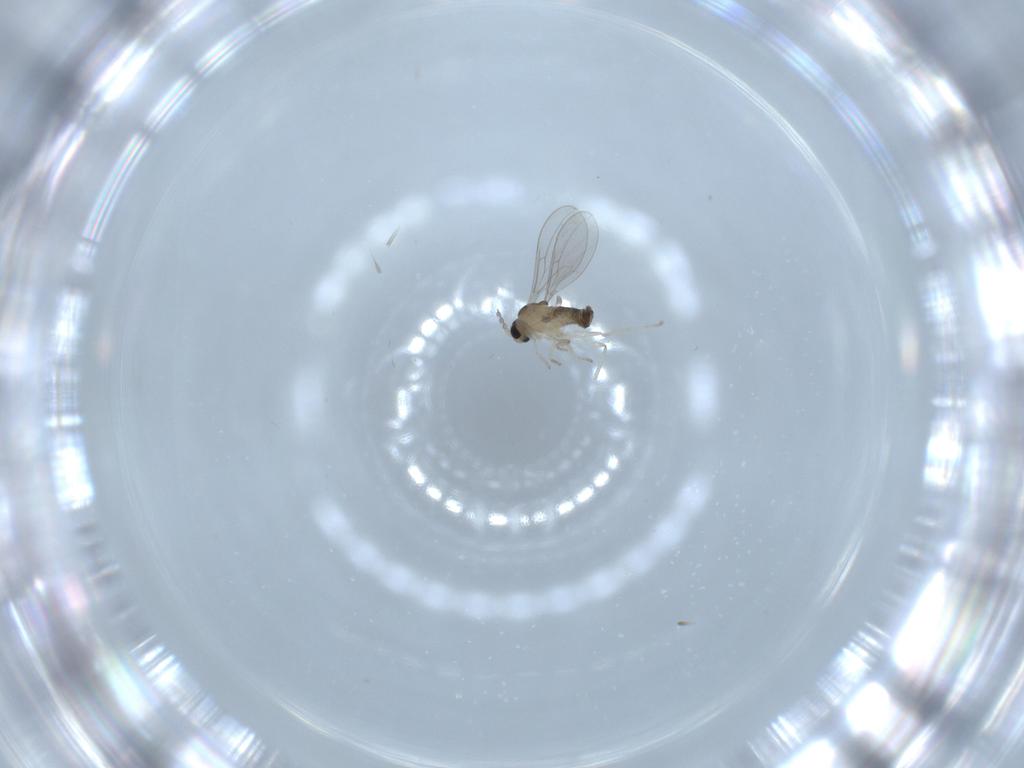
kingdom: Animalia
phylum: Arthropoda
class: Insecta
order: Diptera
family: Cecidomyiidae
